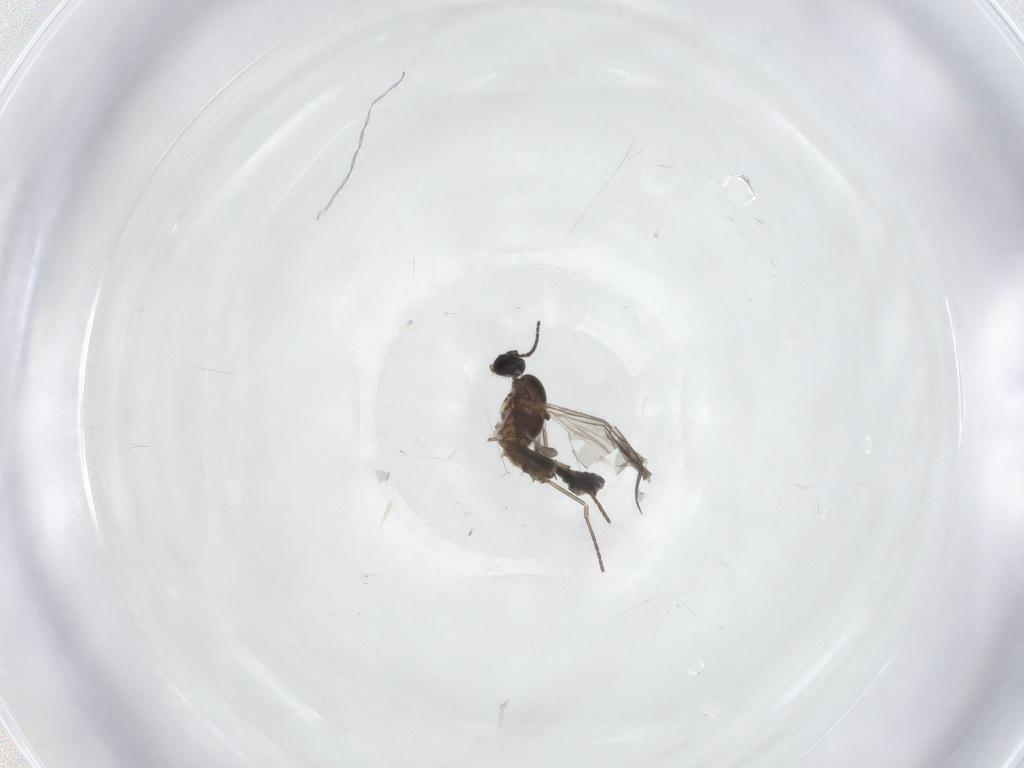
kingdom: Animalia
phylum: Arthropoda
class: Insecta
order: Diptera
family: Sciaridae
